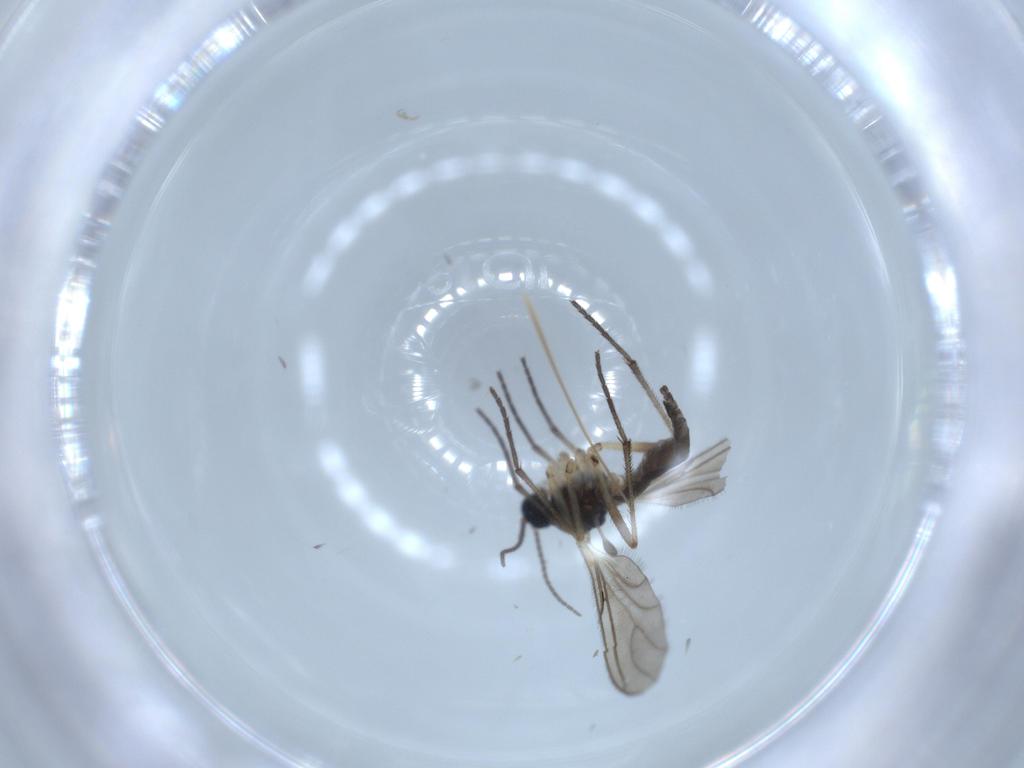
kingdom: Animalia
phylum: Arthropoda
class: Insecta
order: Diptera
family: Sciaridae
